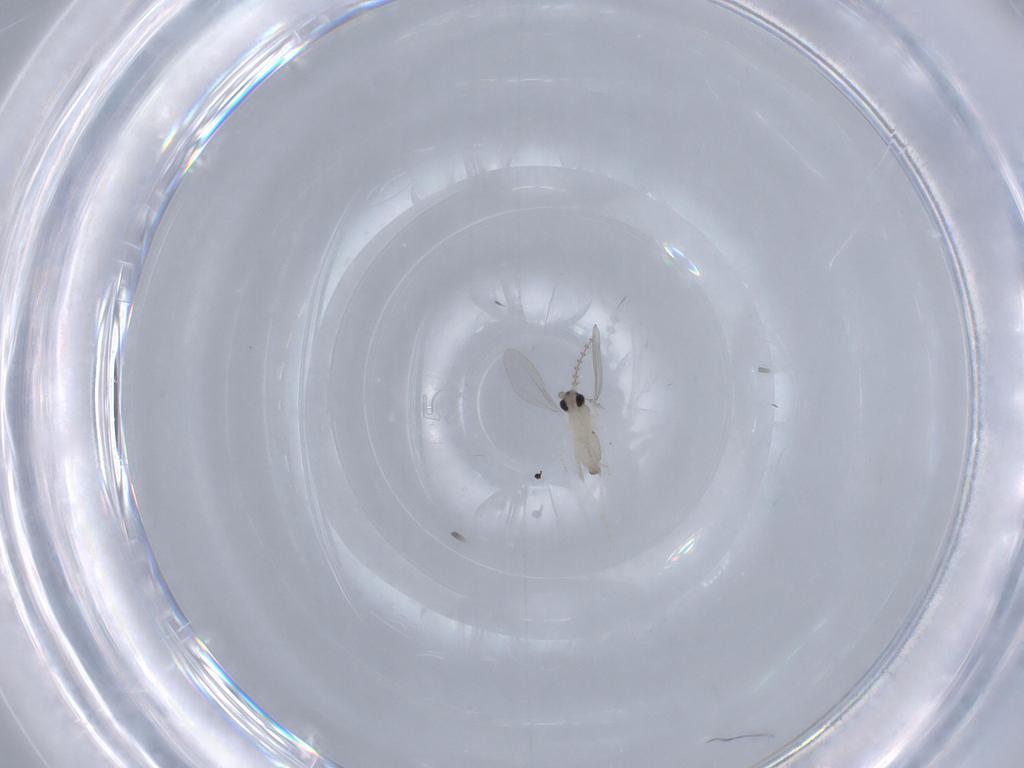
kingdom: Animalia
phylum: Arthropoda
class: Insecta
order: Diptera
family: Cecidomyiidae
